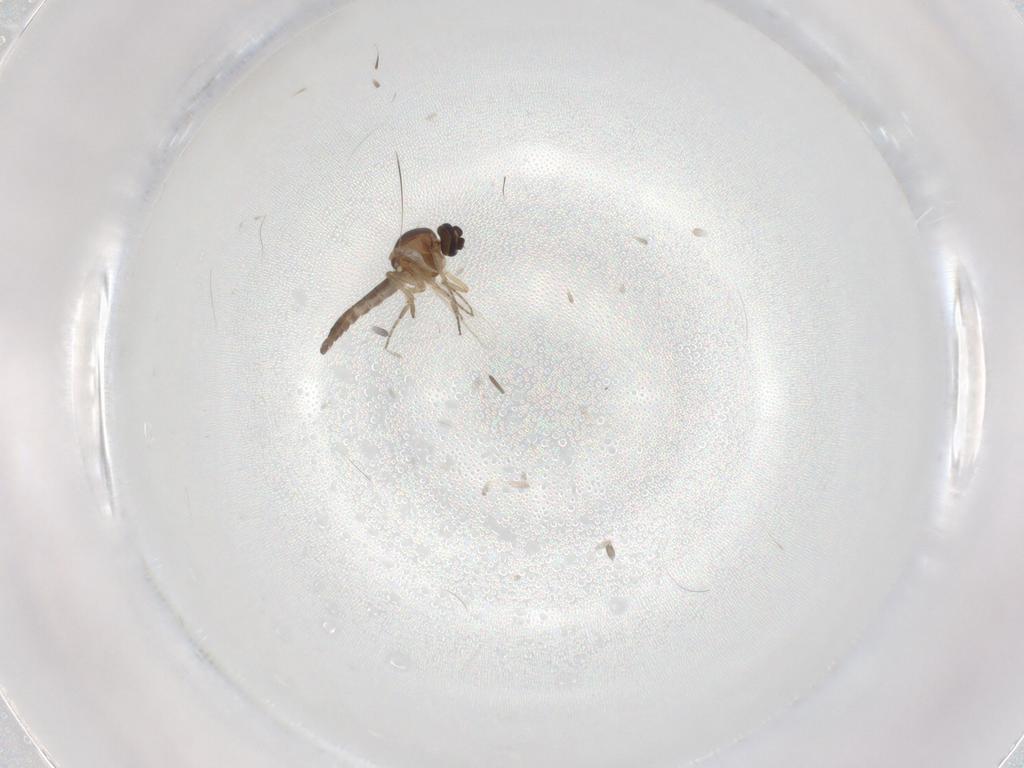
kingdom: Animalia
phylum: Arthropoda
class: Insecta
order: Diptera
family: Ceratopogonidae
